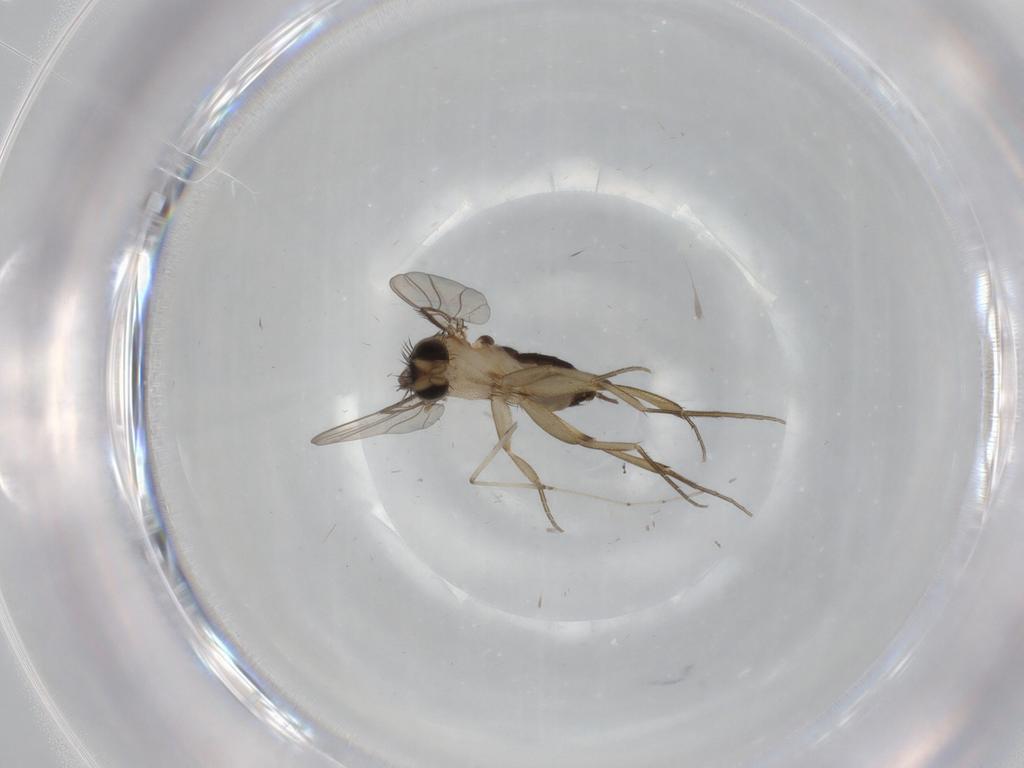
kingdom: Animalia
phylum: Arthropoda
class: Insecta
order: Diptera
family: Phoridae
